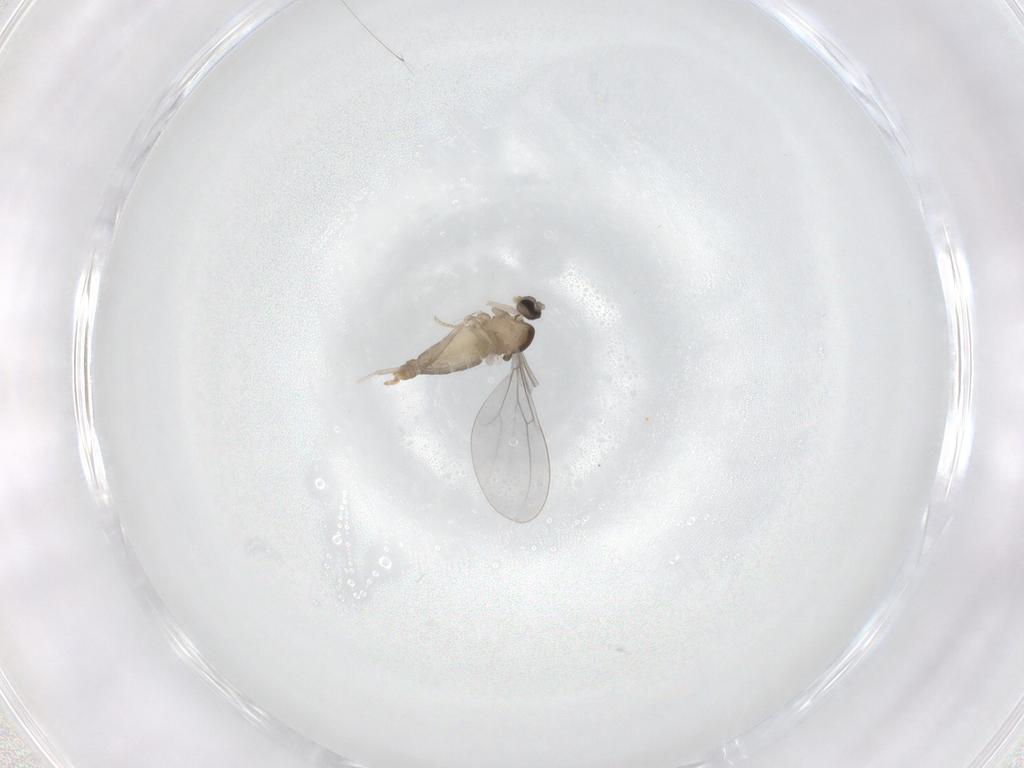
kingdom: Animalia
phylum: Arthropoda
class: Insecta
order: Diptera
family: Cecidomyiidae
